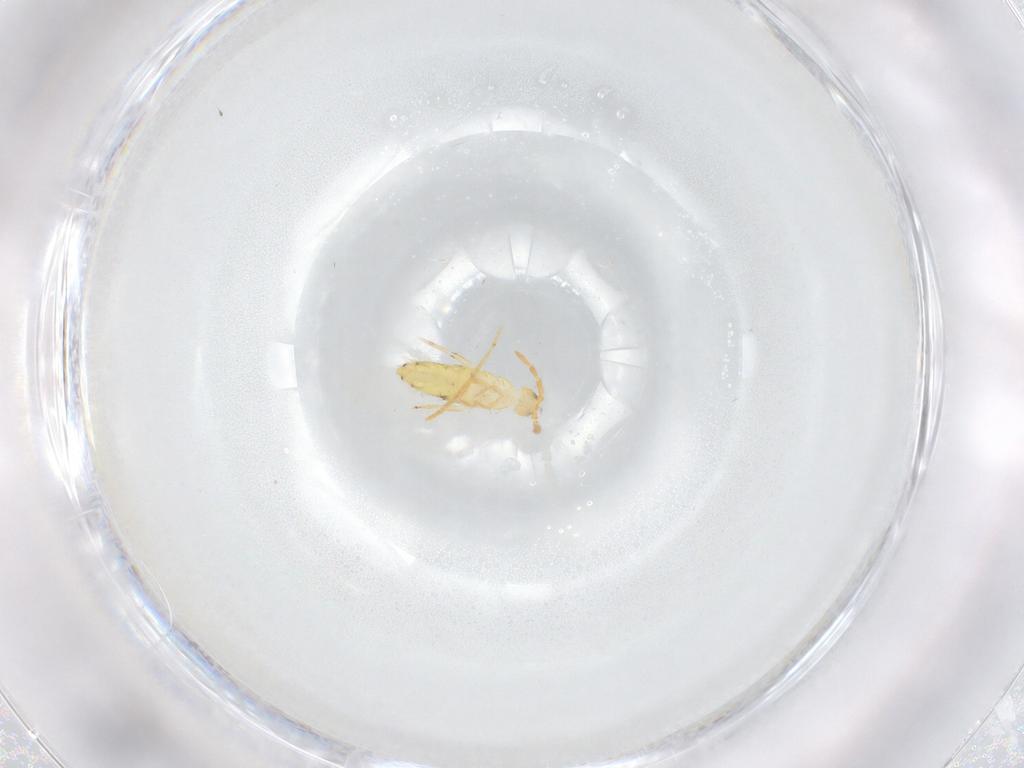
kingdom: Animalia
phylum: Arthropoda
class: Collembola
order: Entomobryomorpha
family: Entomobryidae
